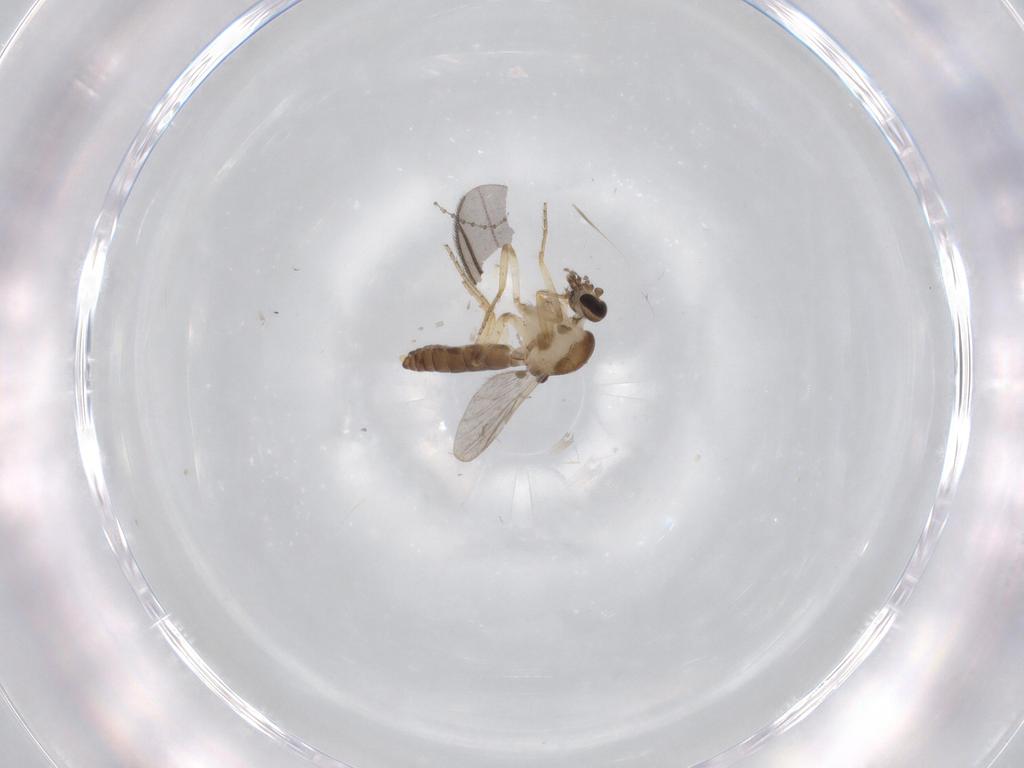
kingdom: Animalia
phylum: Arthropoda
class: Insecta
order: Diptera
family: Ceratopogonidae
